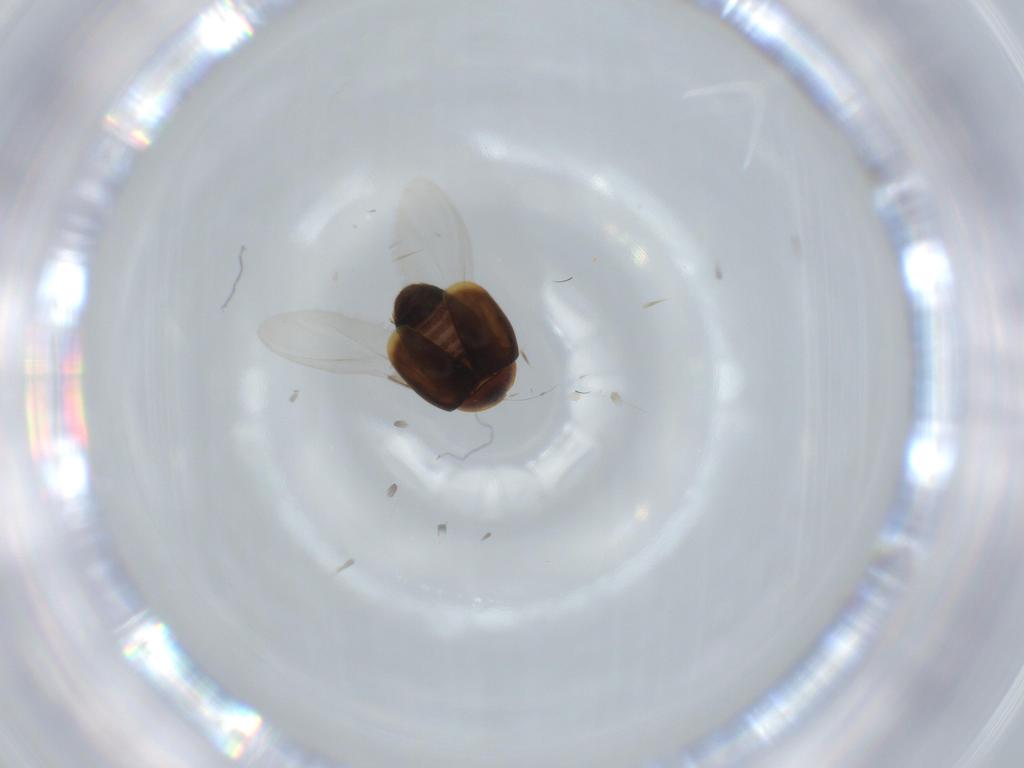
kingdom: Animalia
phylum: Arthropoda
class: Insecta
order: Coleoptera
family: Corylophidae
